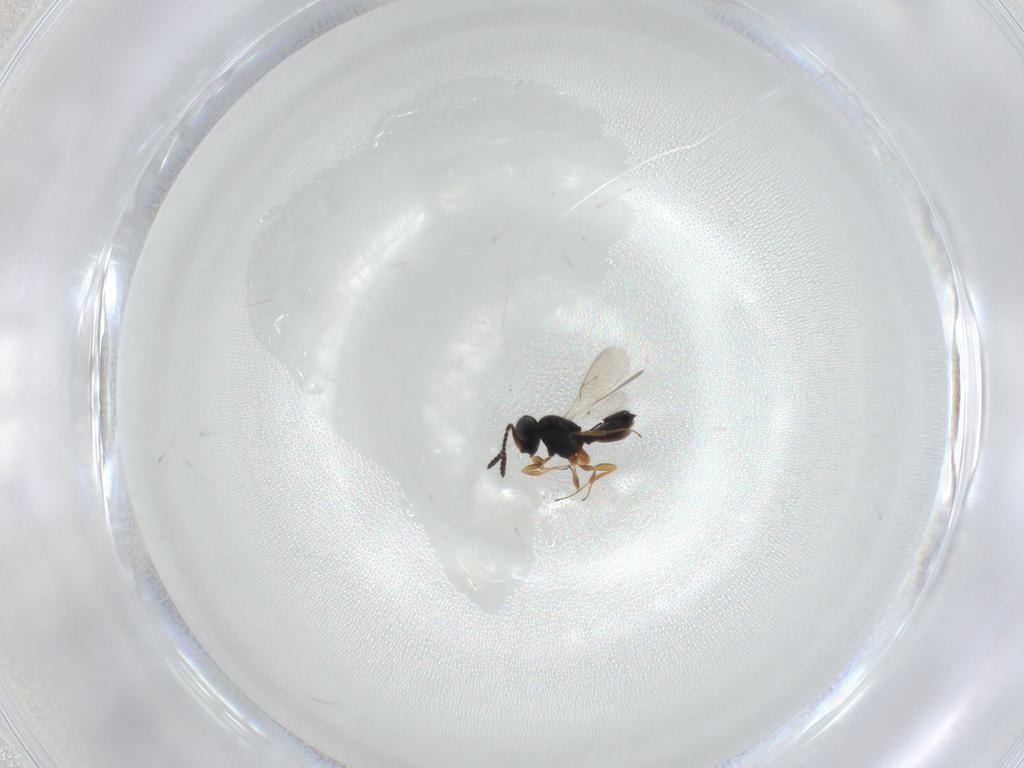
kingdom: Animalia
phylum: Arthropoda
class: Insecta
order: Hymenoptera
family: Scelionidae
